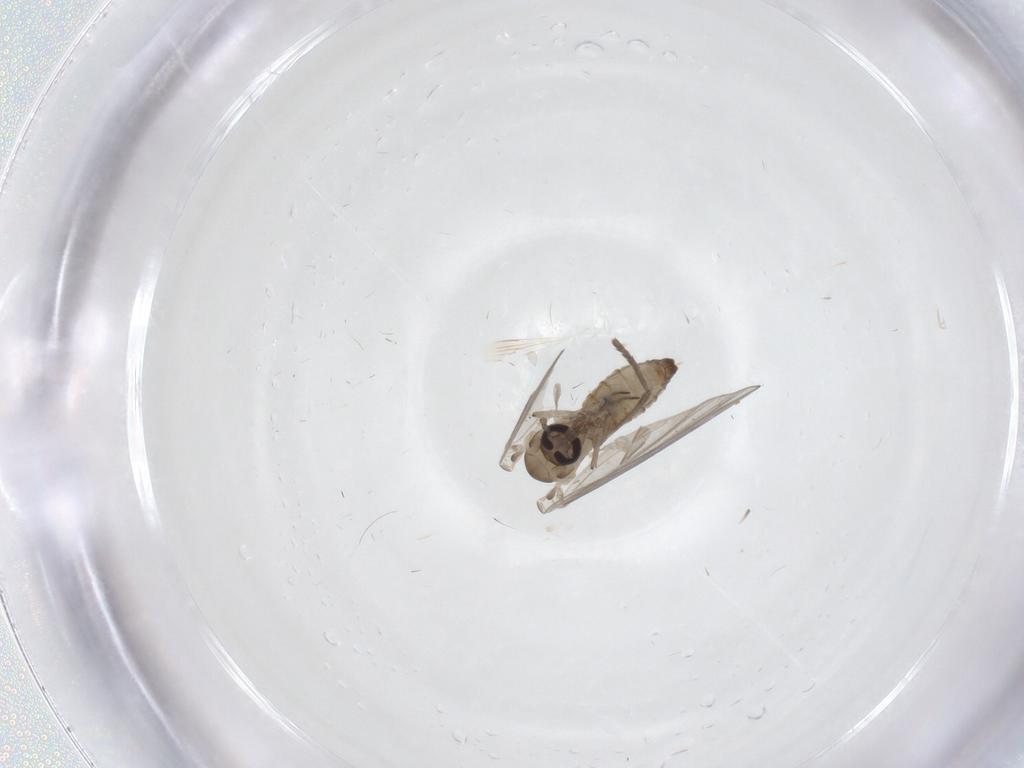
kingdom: Animalia
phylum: Arthropoda
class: Insecta
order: Diptera
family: Psychodidae
